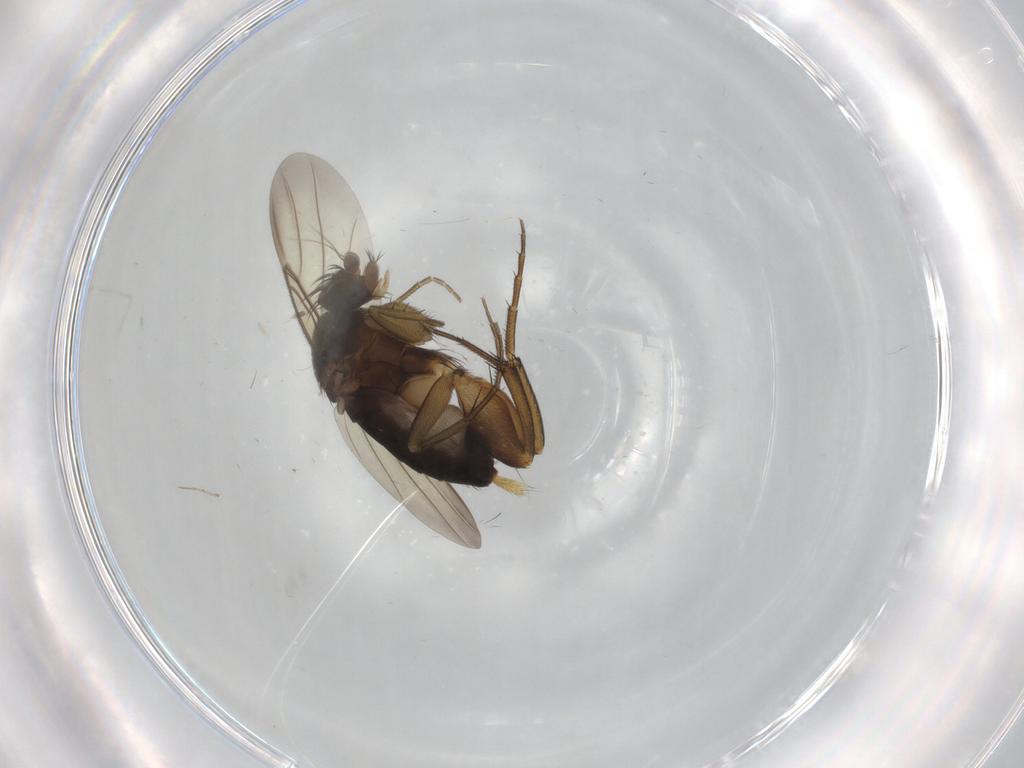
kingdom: Animalia
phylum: Arthropoda
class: Insecta
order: Diptera
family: Phoridae
